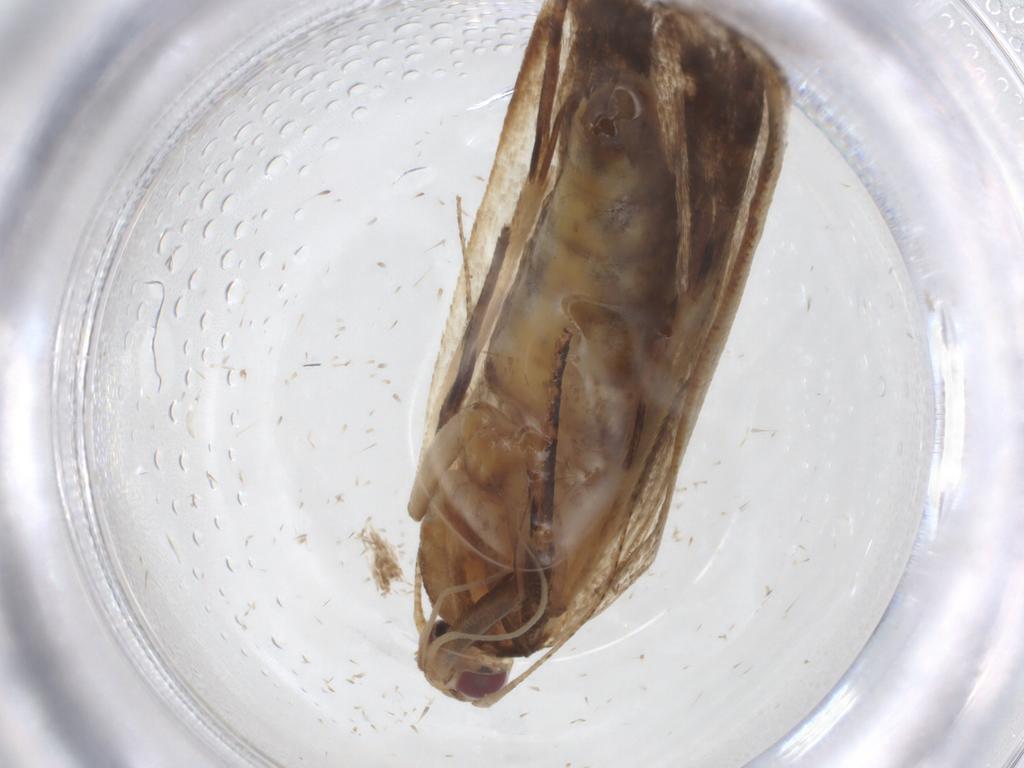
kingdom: Animalia
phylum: Arthropoda
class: Insecta
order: Lepidoptera
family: Gelechiidae
